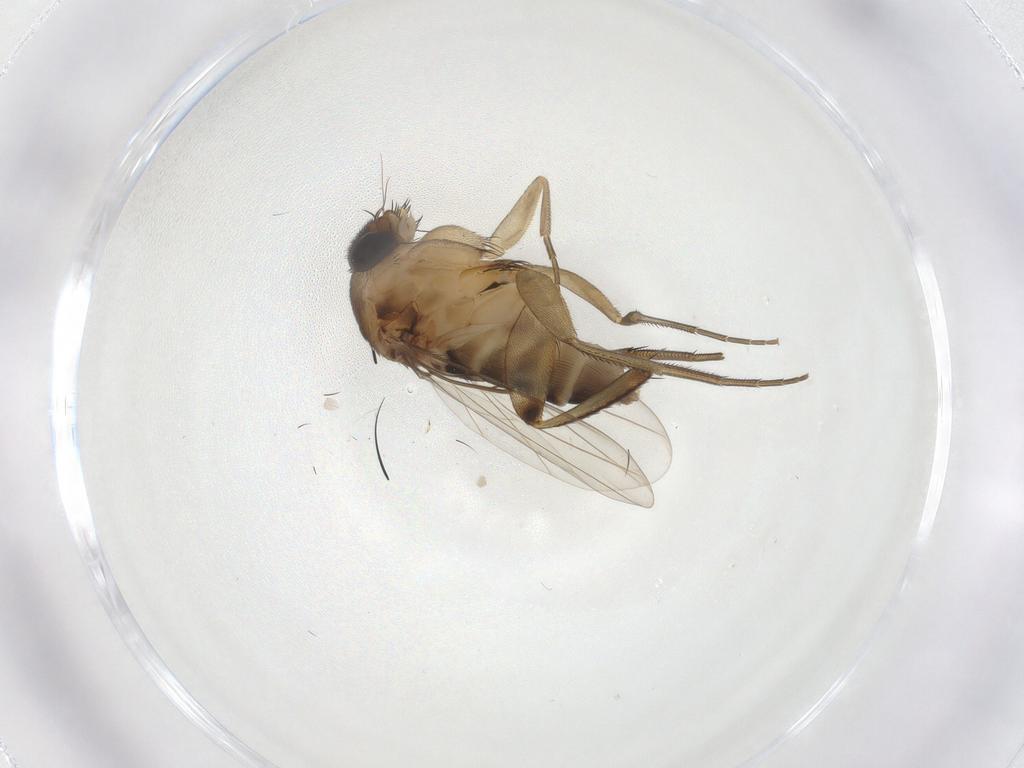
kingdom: Animalia
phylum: Arthropoda
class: Insecta
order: Diptera
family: Phoridae
